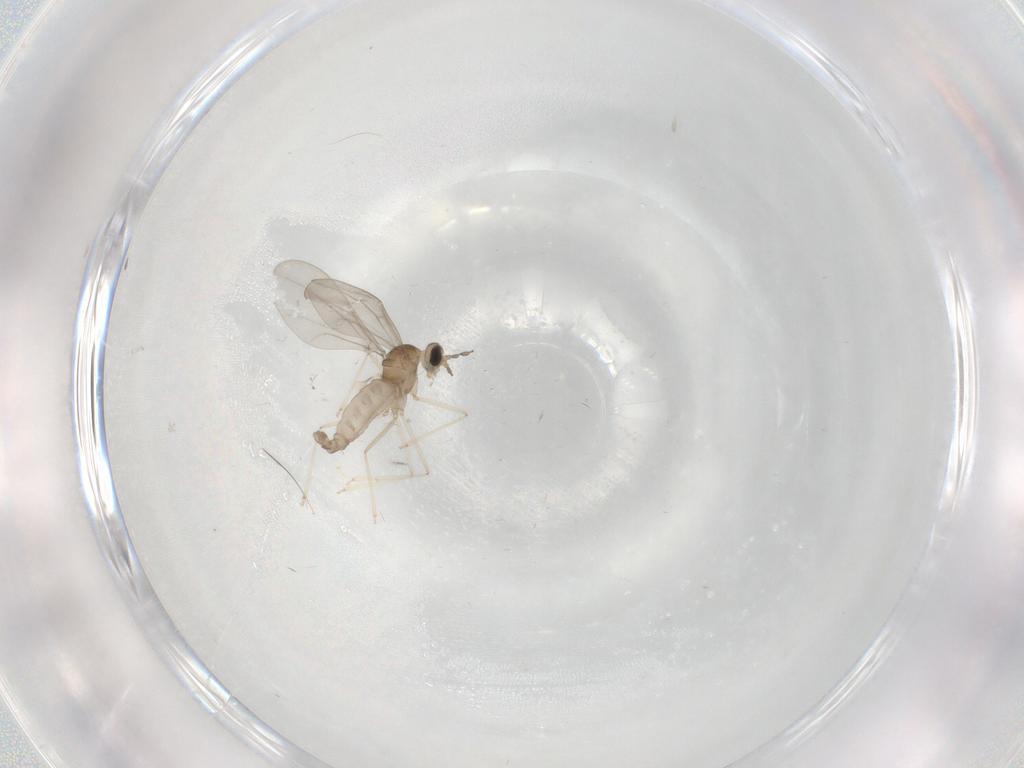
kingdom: Animalia
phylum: Arthropoda
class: Insecta
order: Diptera
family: Cecidomyiidae
